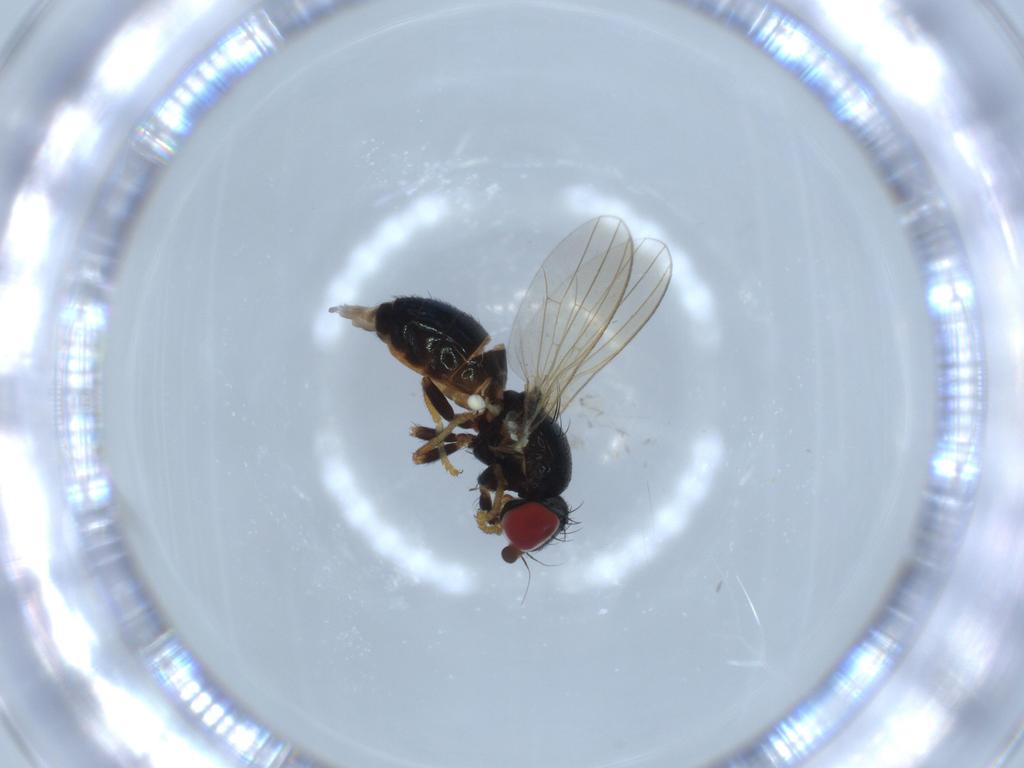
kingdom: Animalia
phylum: Arthropoda
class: Insecta
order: Diptera
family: Chamaemyiidae
